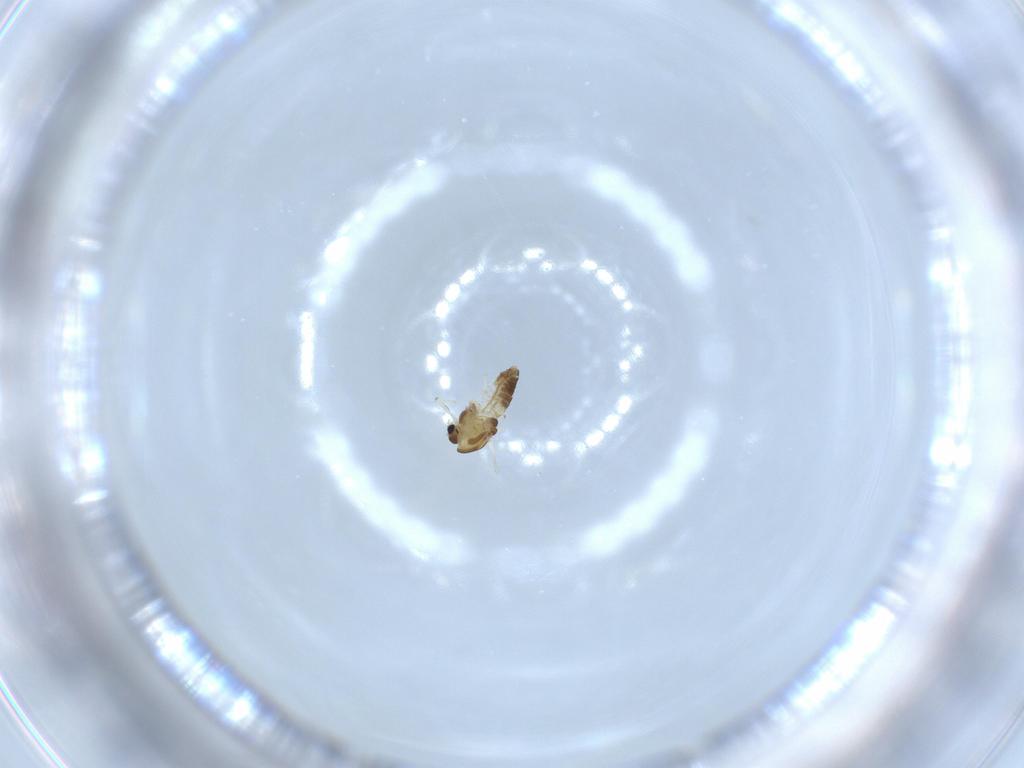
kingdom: Animalia
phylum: Arthropoda
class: Insecta
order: Diptera
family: Chironomidae
